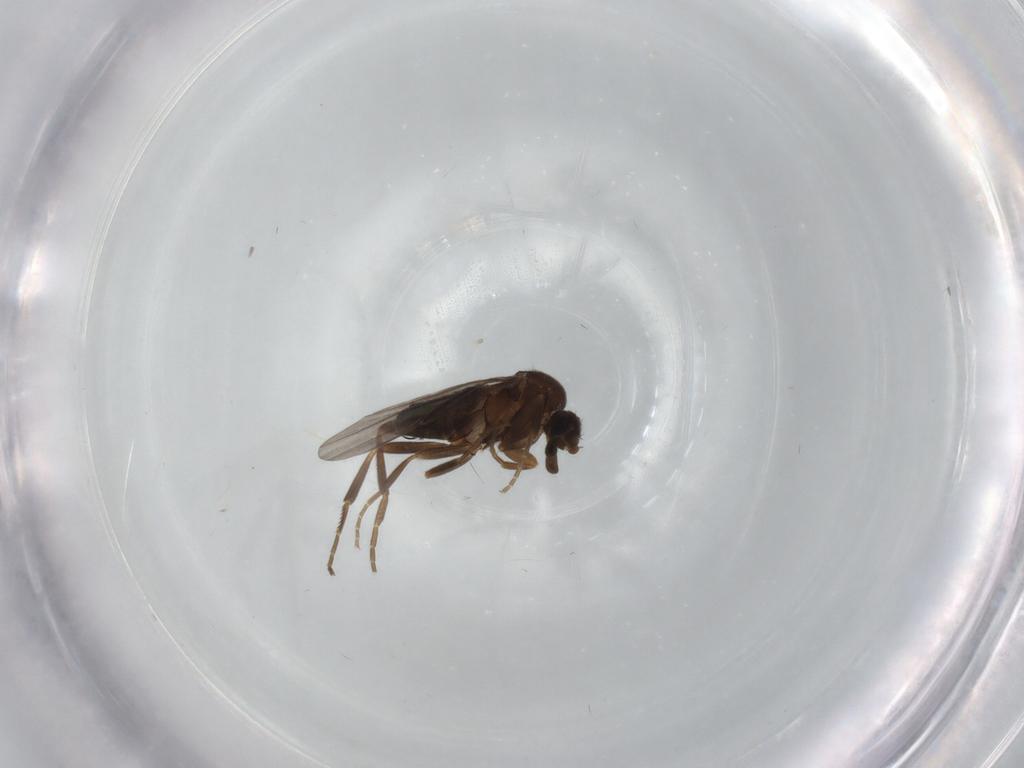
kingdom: Animalia
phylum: Arthropoda
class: Insecta
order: Diptera
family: Phoridae
